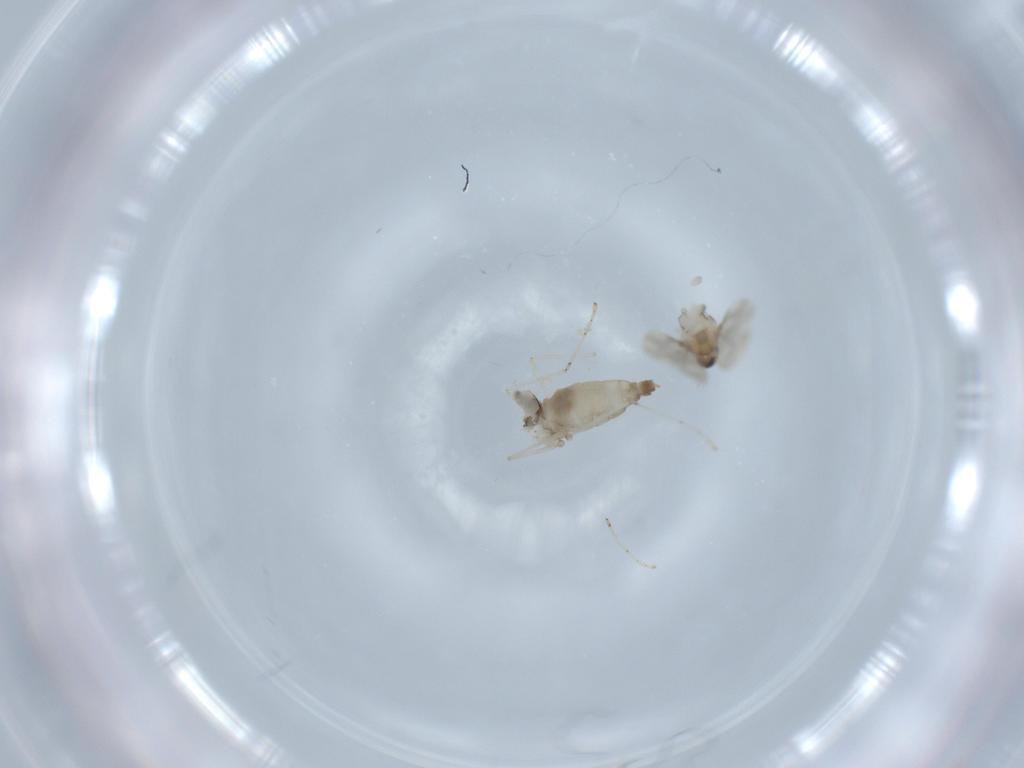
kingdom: Animalia
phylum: Arthropoda
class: Insecta
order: Diptera
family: Cecidomyiidae
